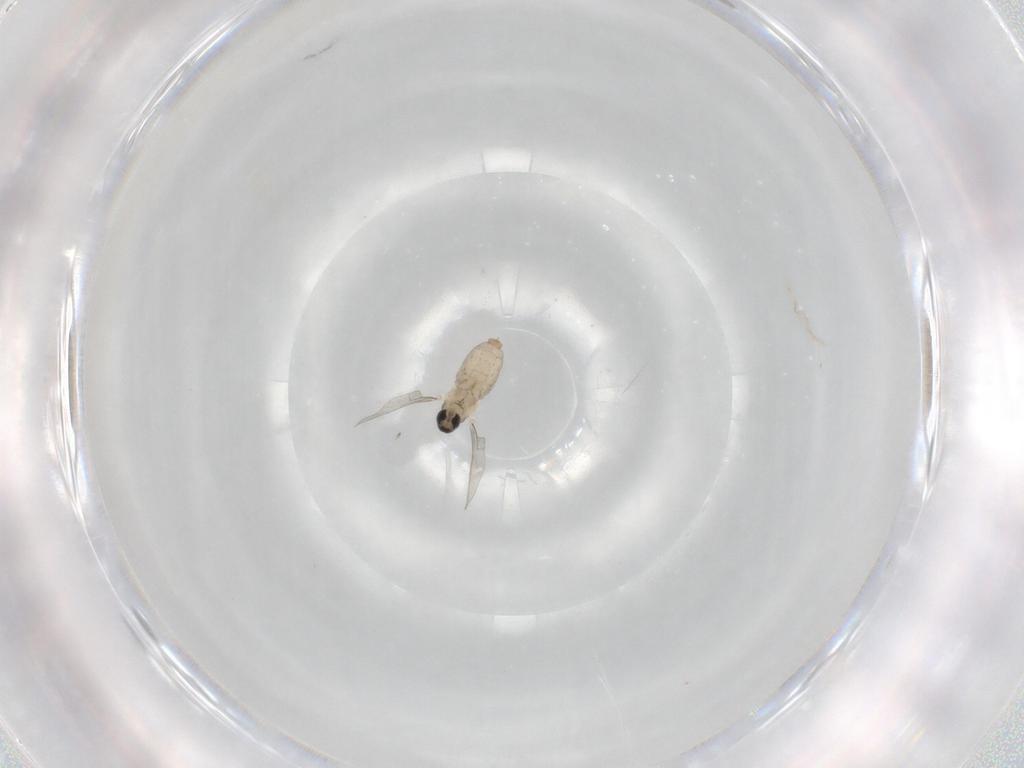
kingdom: Animalia
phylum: Arthropoda
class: Insecta
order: Diptera
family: Cecidomyiidae
